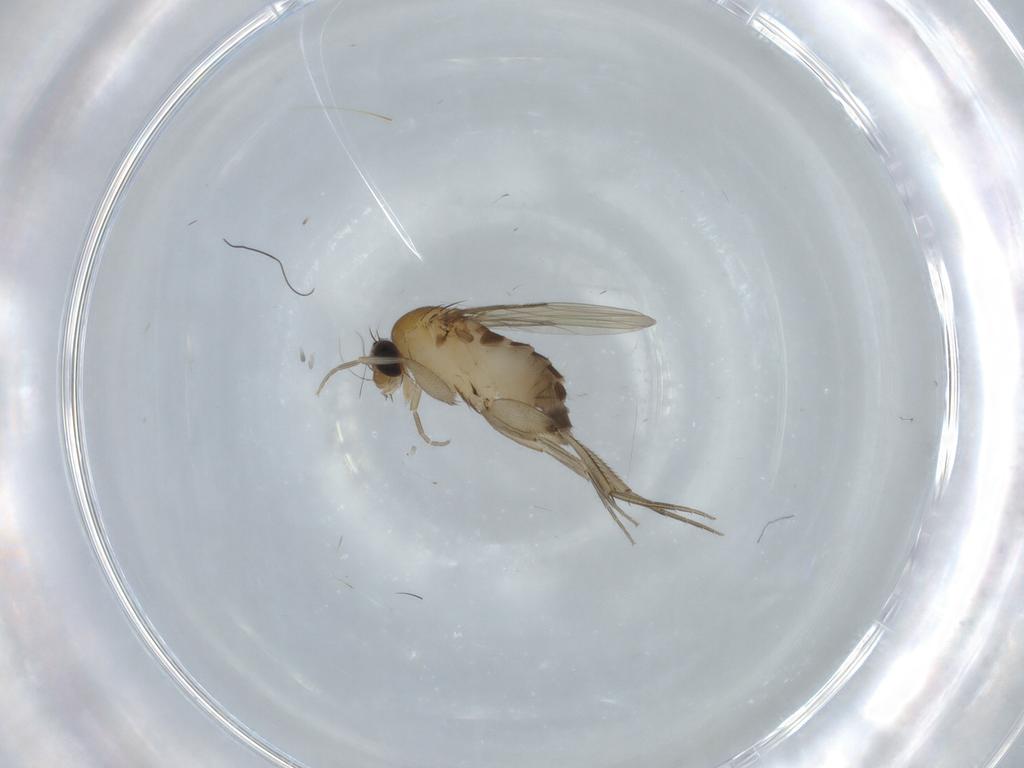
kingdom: Animalia
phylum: Arthropoda
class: Insecta
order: Diptera
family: Phoridae
